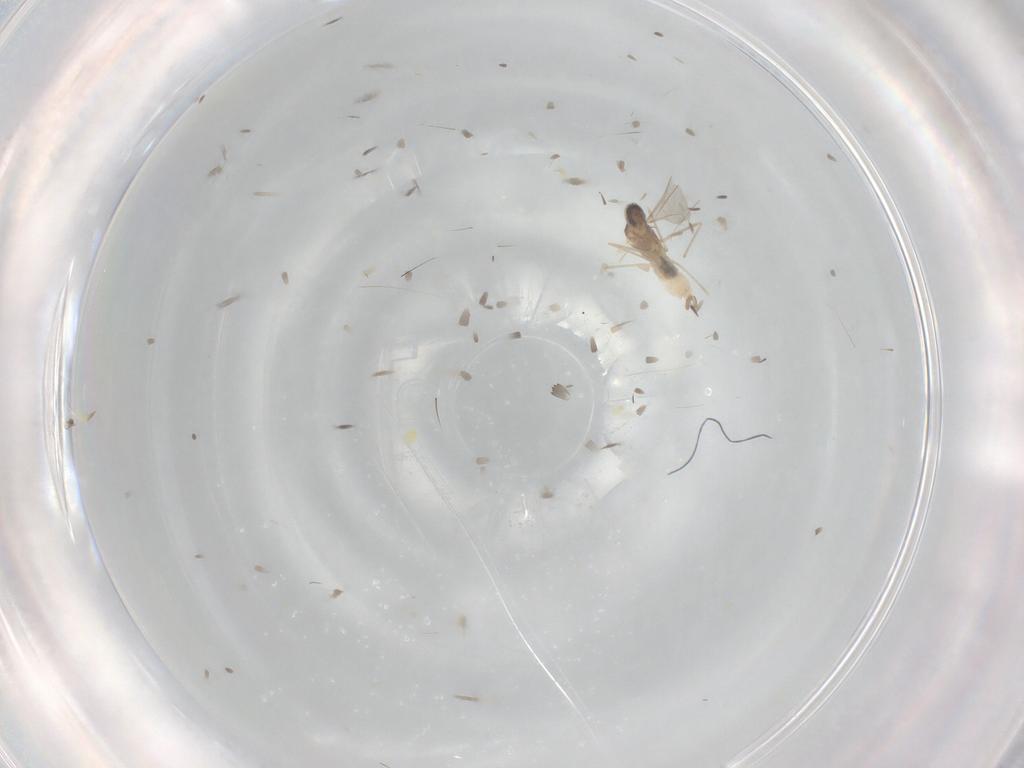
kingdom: Animalia
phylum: Arthropoda
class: Insecta
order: Diptera
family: Cecidomyiidae
